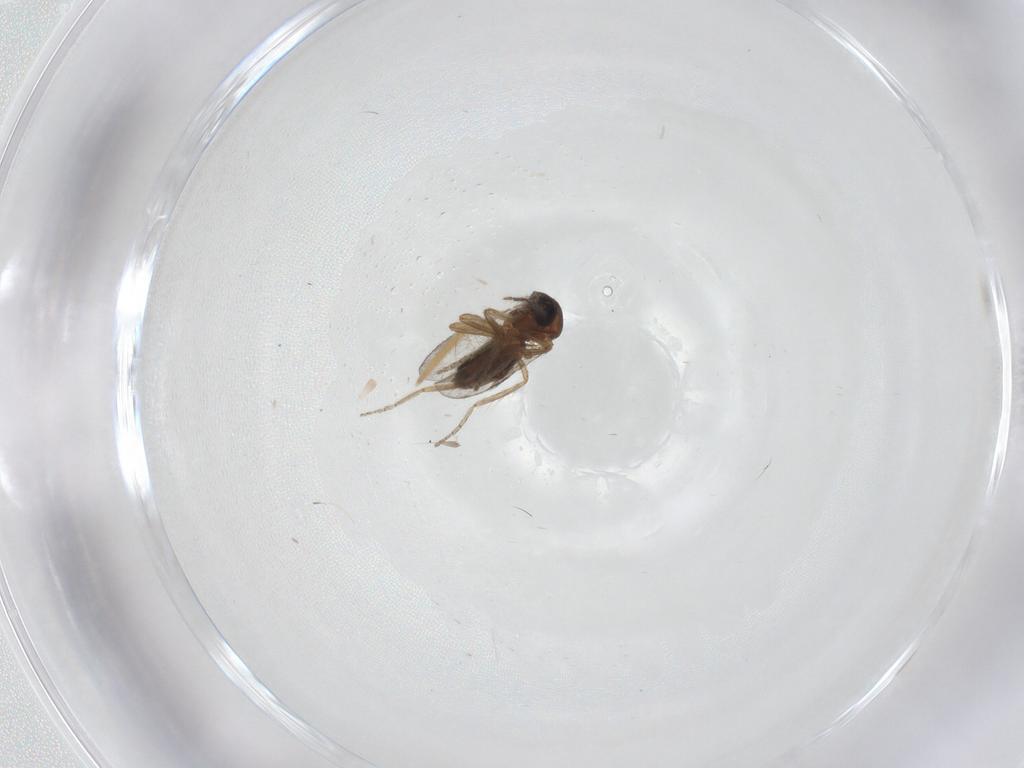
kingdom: Animalia
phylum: Arthropoda
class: Insecta
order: Diptera
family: Ceratopogonidae
